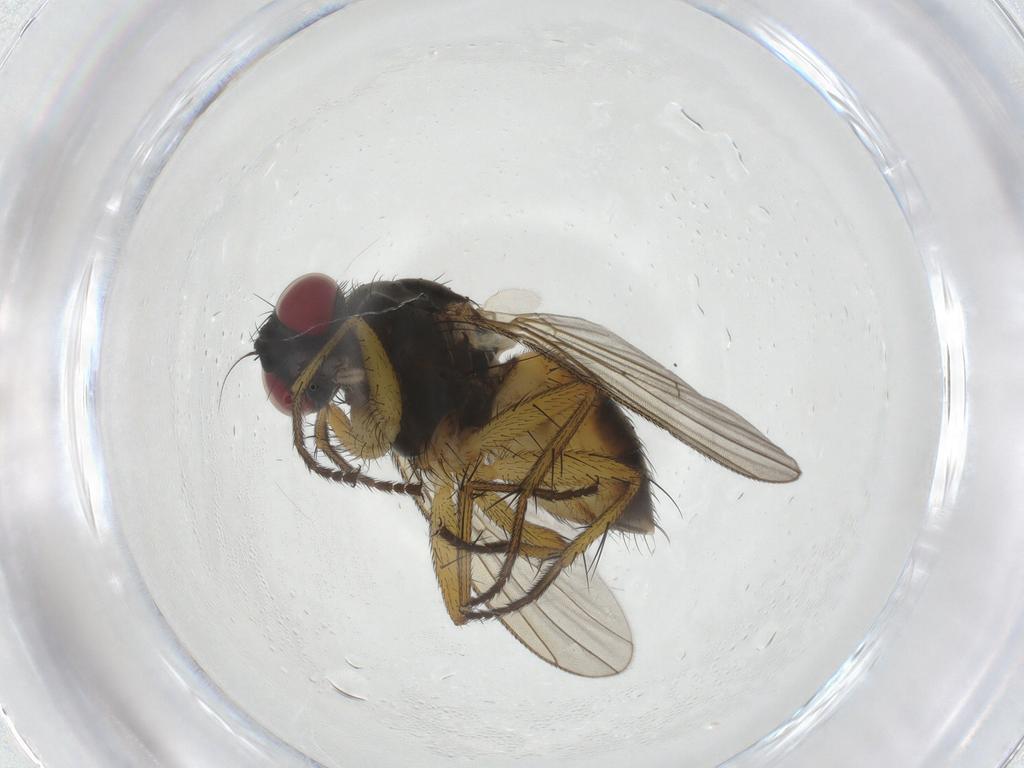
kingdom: Animalia
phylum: Arthropoda
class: Insecta
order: Diptera
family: Muscidae
